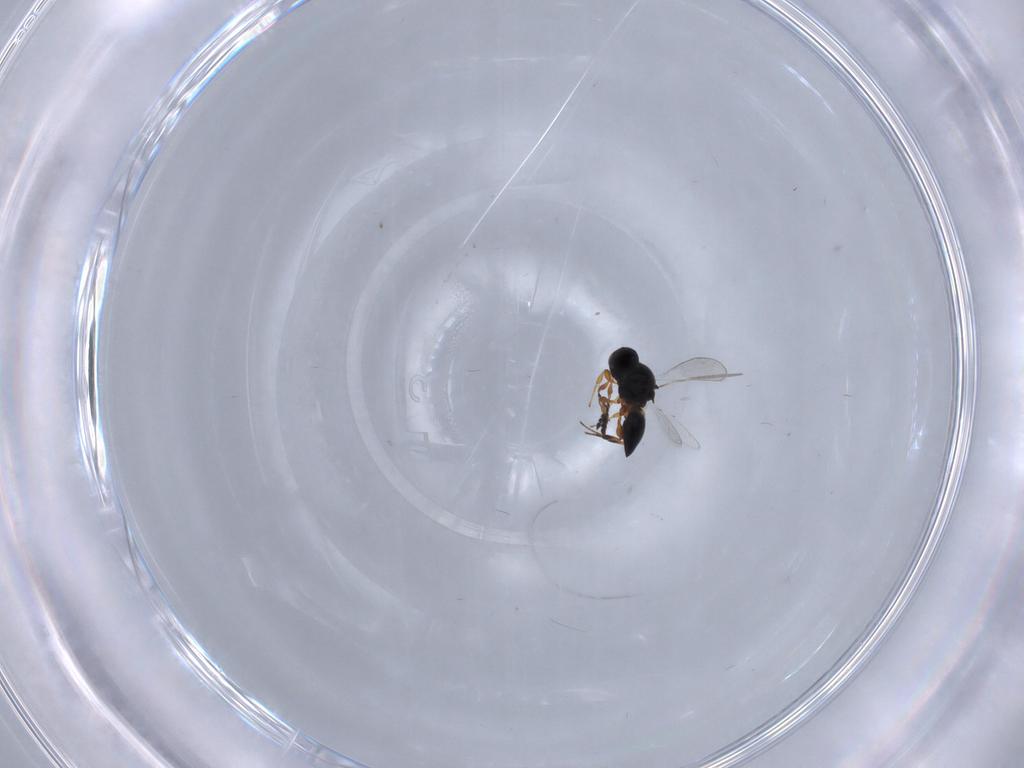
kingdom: Animalia
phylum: Arthropoda
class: Insecta
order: Hymenoptera
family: Platygastridae
